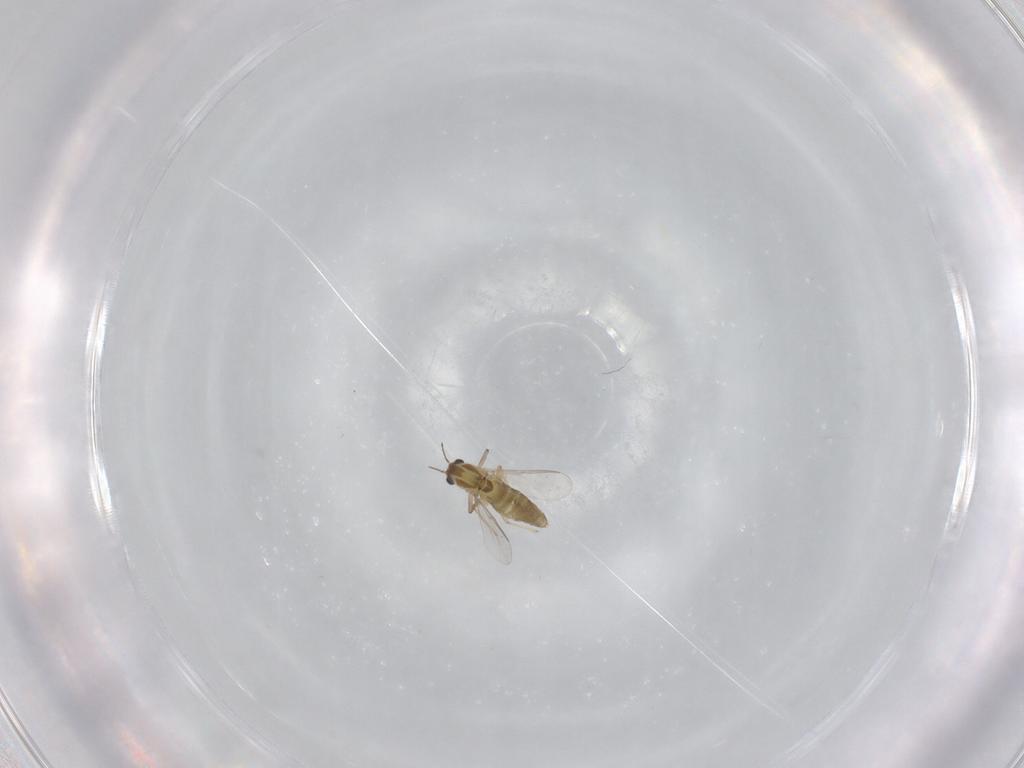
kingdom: Animalia
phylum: Arthropoda
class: Insecta
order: Diptera
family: Chironomidae
